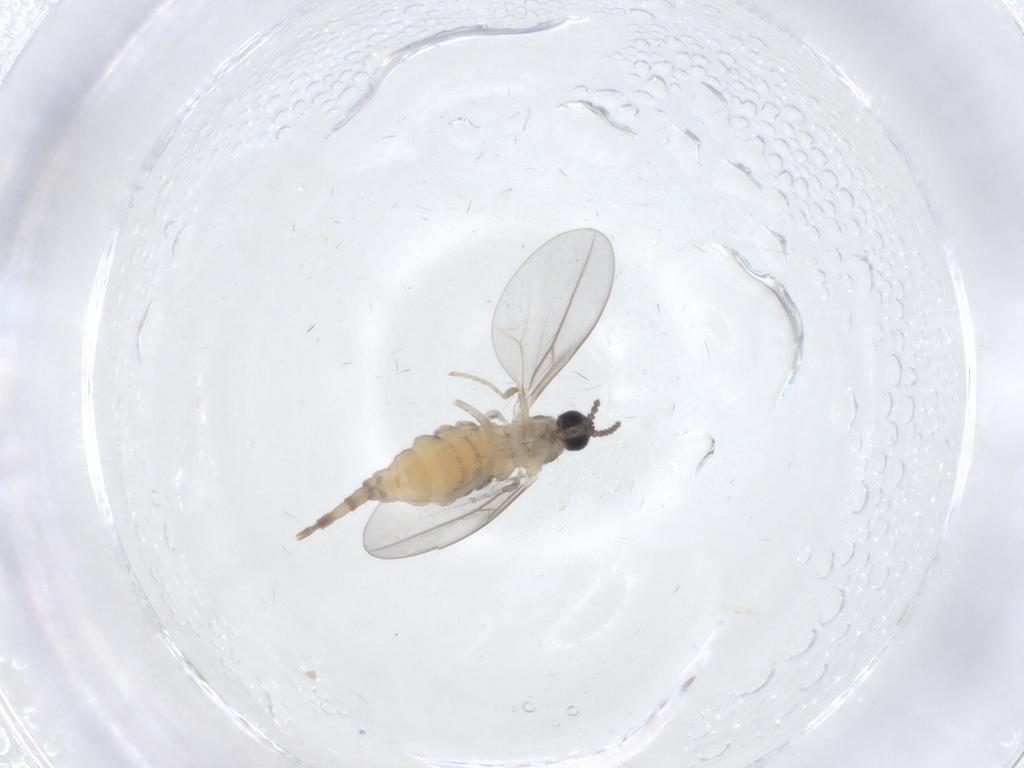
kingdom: Animalia
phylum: Arthropoda
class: Insecta
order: Diptera
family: Cecidomyiidae
